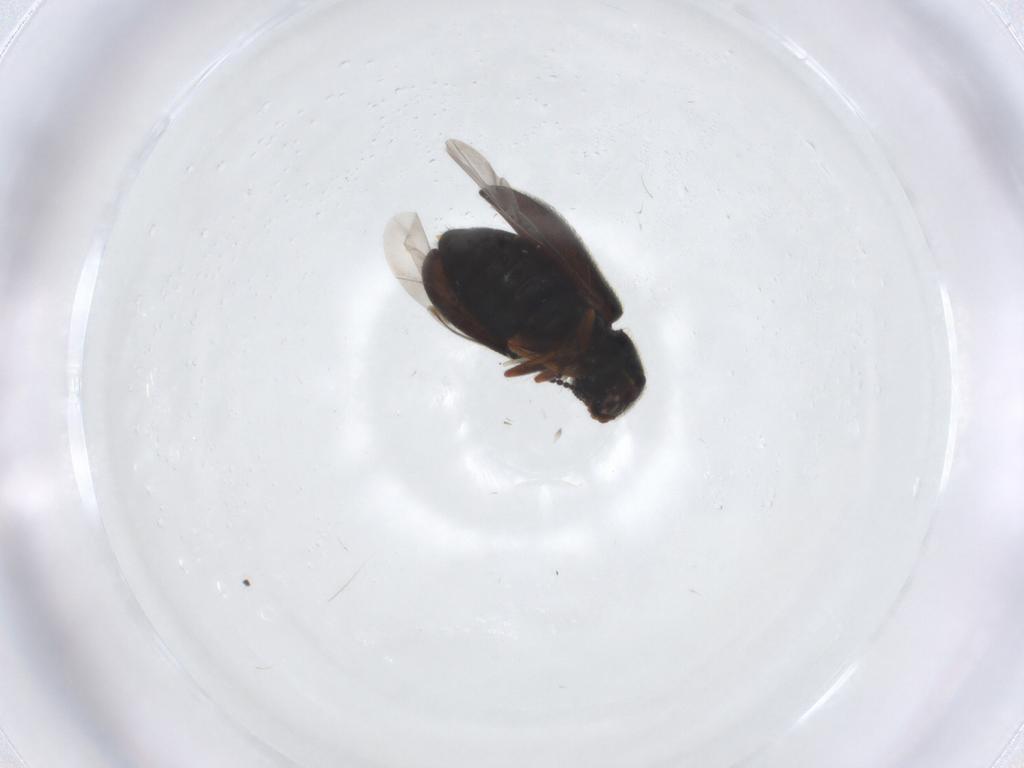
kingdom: Animalia
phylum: Arthropoda
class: Insecta
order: Coleoptera
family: Melyridae
